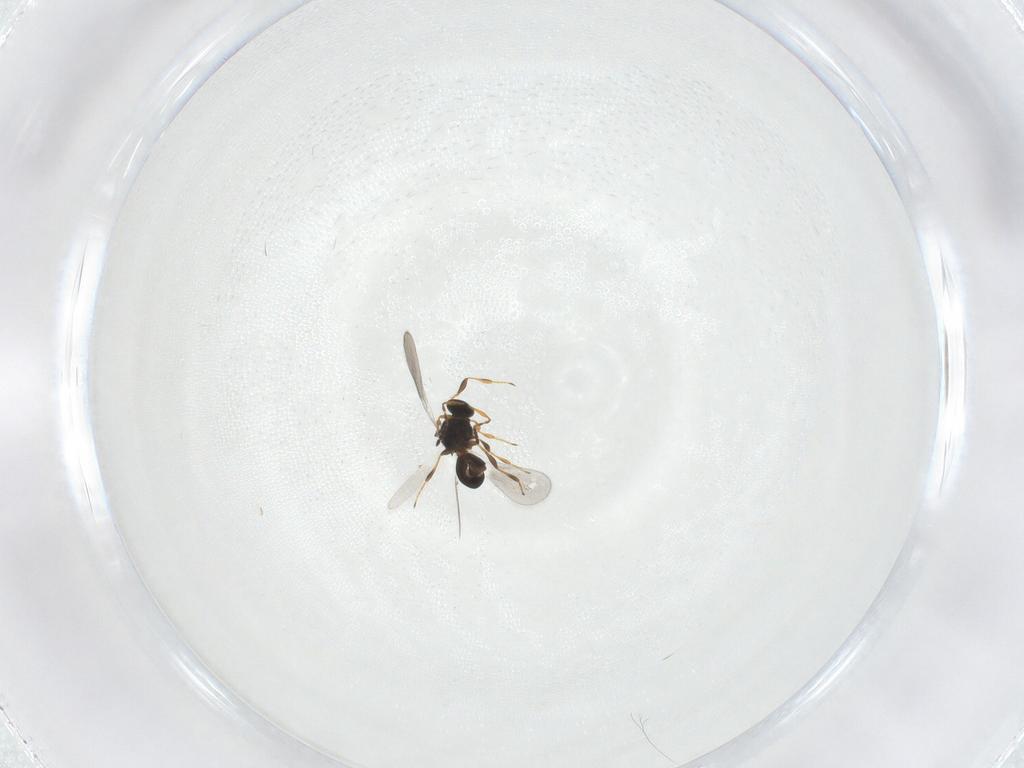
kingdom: Animalia
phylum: Arthropoda
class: Insecta
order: Hymenoptera
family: Platygastridae
